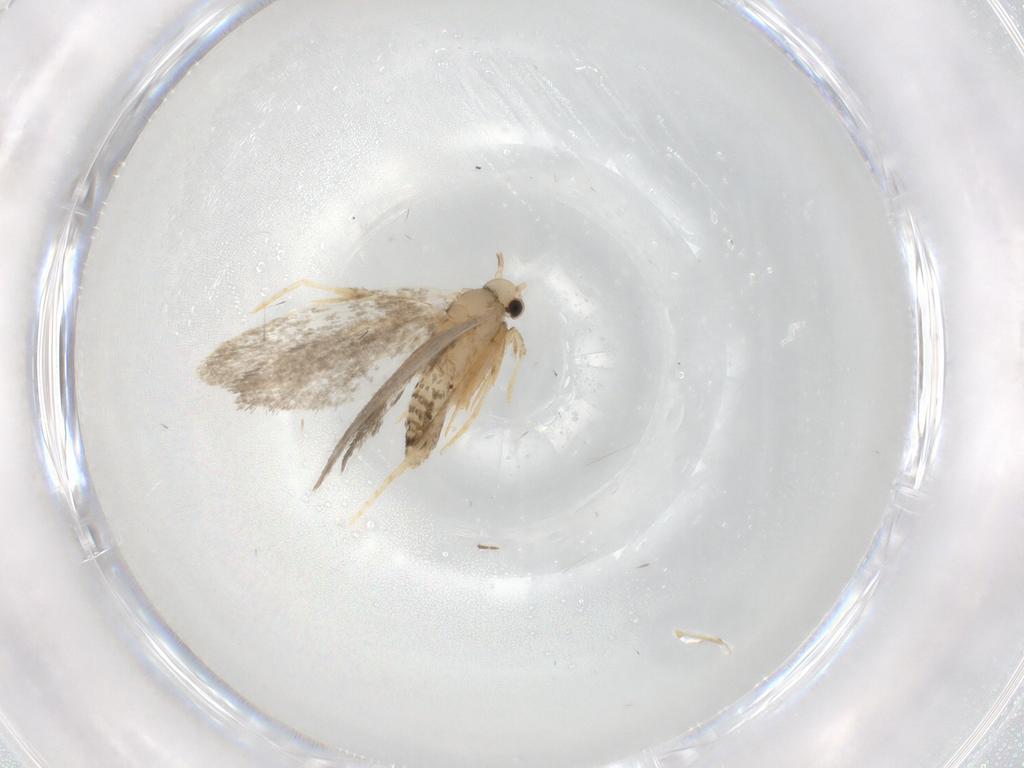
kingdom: Animalia
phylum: Arthropoda
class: Insecta
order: Lepidoptera
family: Psychidae
